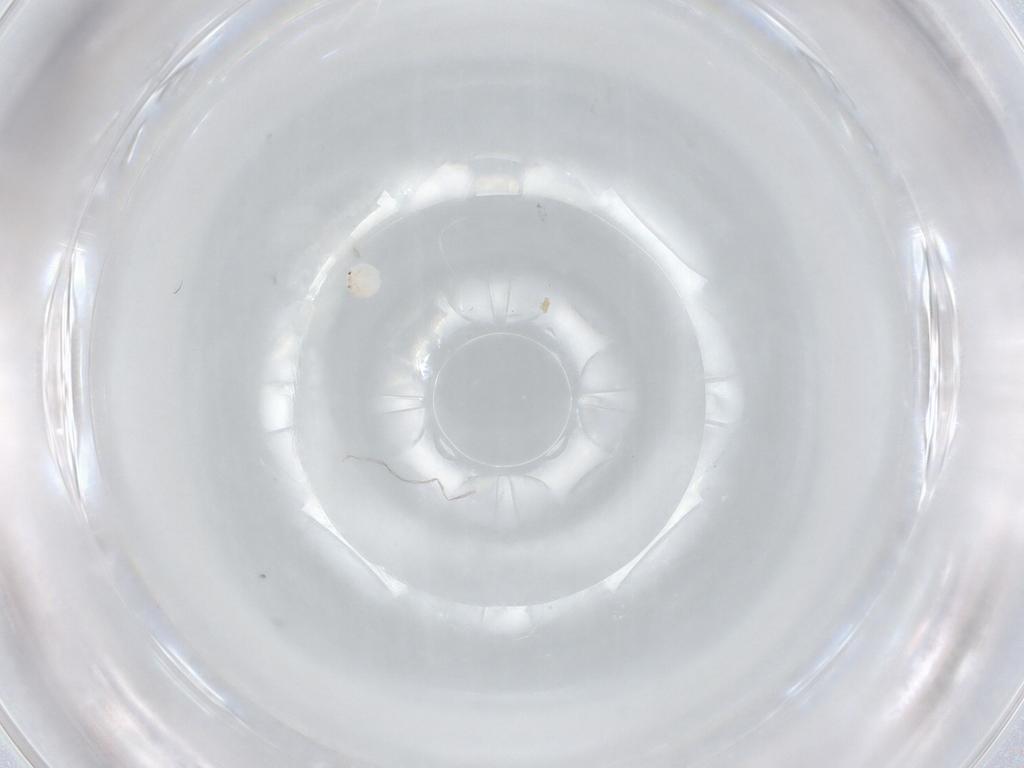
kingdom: Animalia
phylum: Arthropoda
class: Arachnida
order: Trombidiformes
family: Arrenuridae
